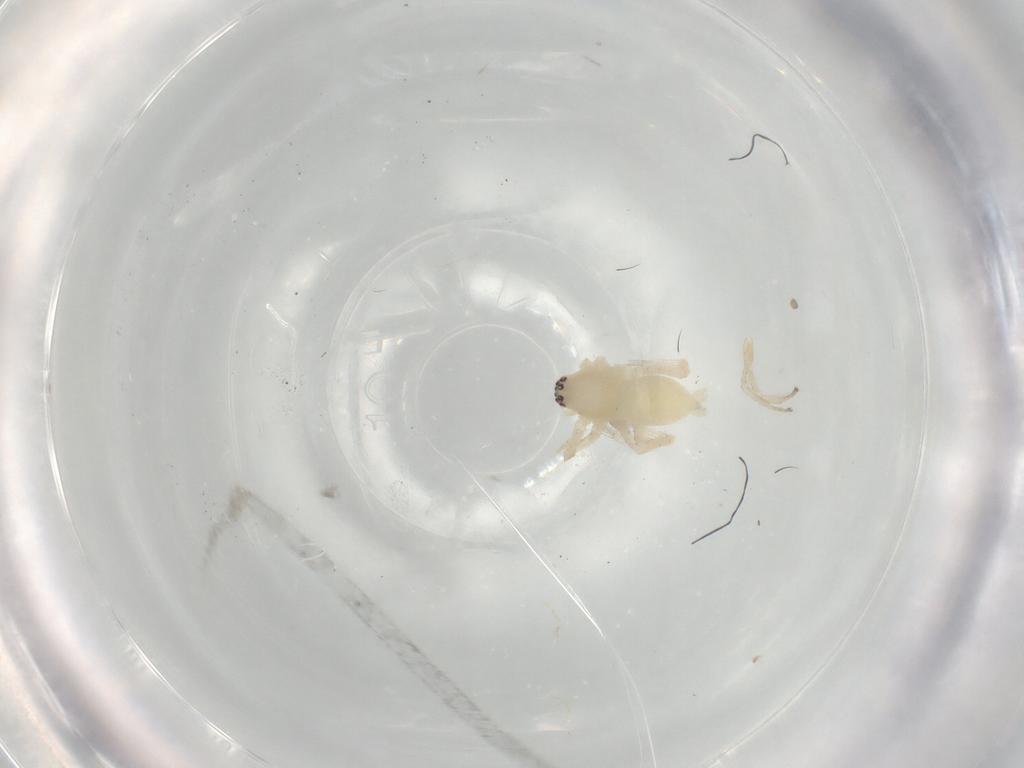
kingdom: Animalia
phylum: Arthropoda
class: Arachnida
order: Araneae
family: Anyphaenidae
